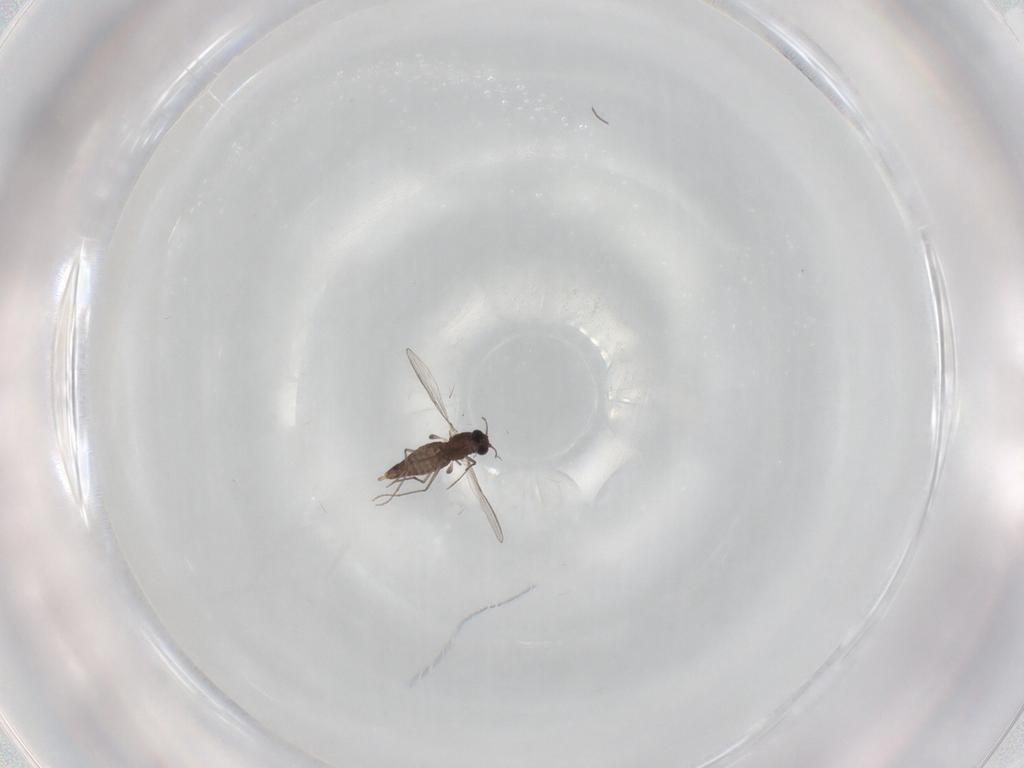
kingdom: Animalia
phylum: Arthropoda
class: Insecta
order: Diptera
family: Chironomidae
